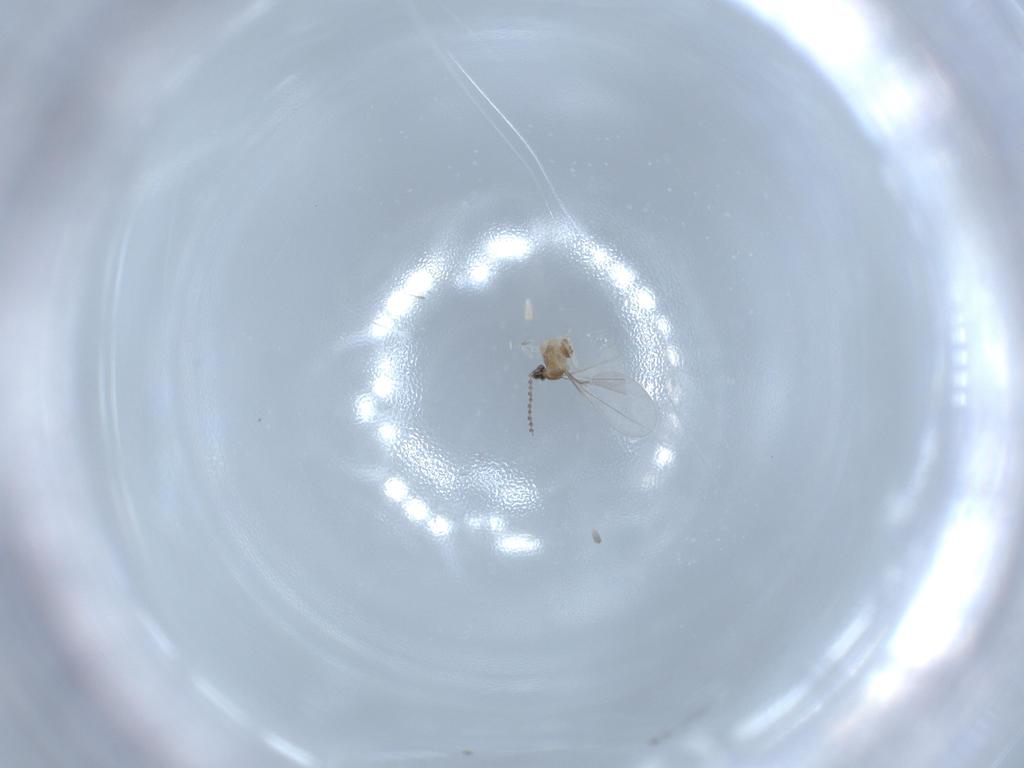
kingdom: Animalia
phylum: Arthropoda
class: Insecta
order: Diptera
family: Cecidomyiidae
